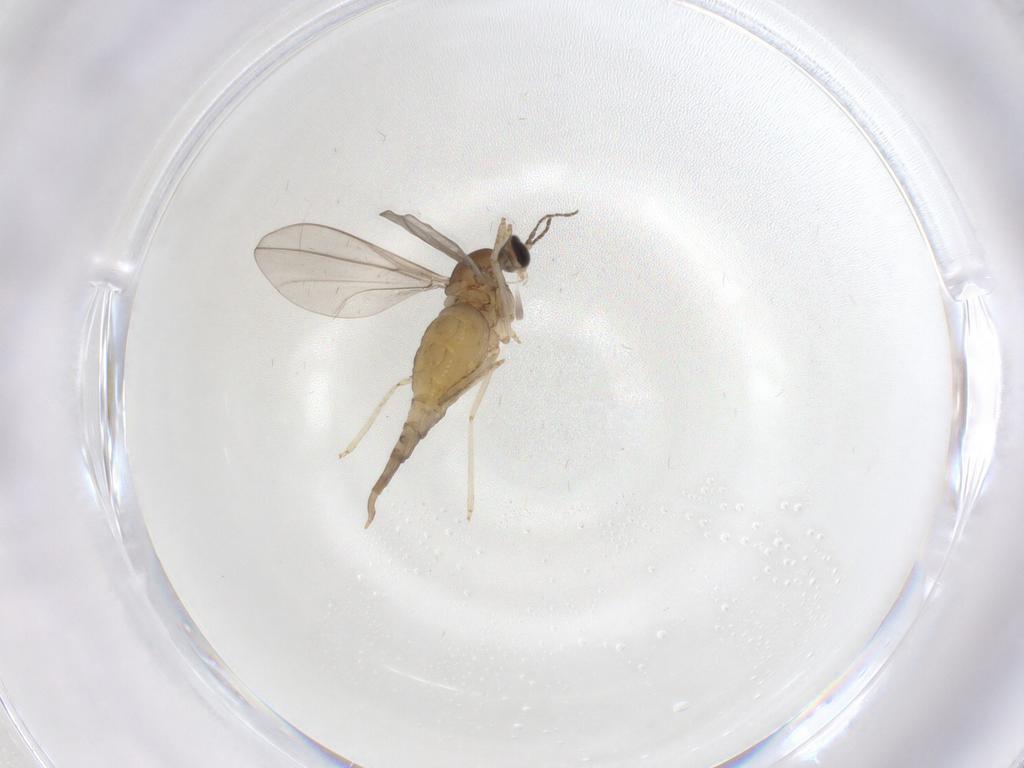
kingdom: Animalia
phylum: Arthropoda
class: Insecta
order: Diptera
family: Cecidomyiidae
